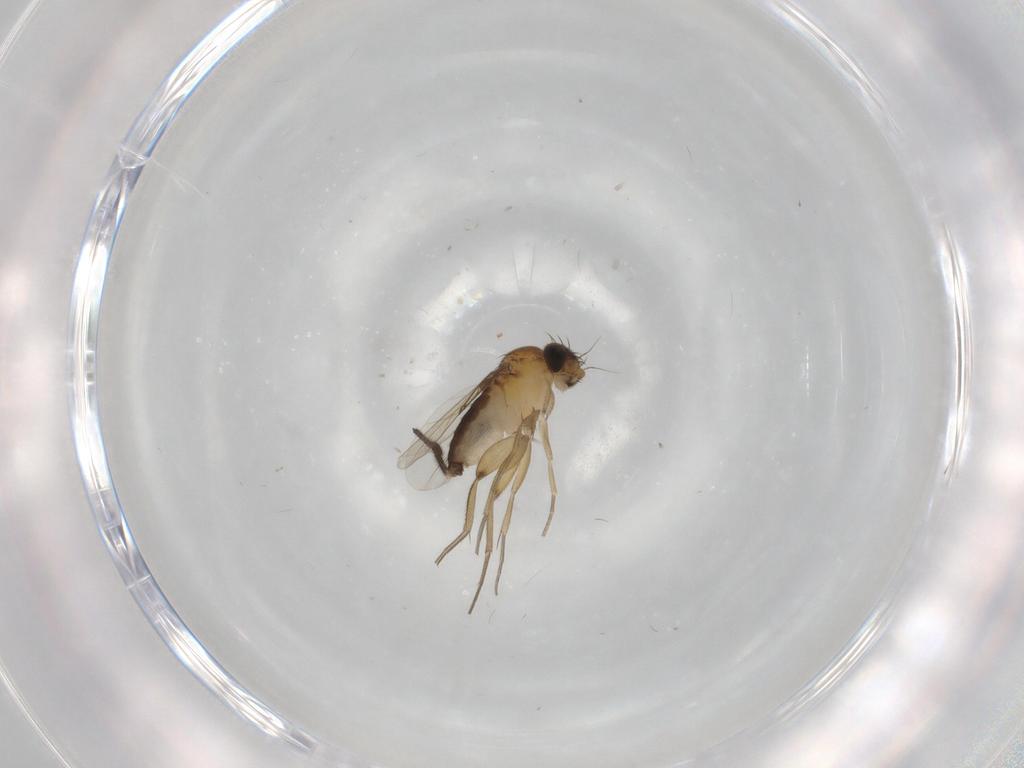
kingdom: Animalia
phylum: Arthropoda
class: Insecta
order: Diptera
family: Phoridae
